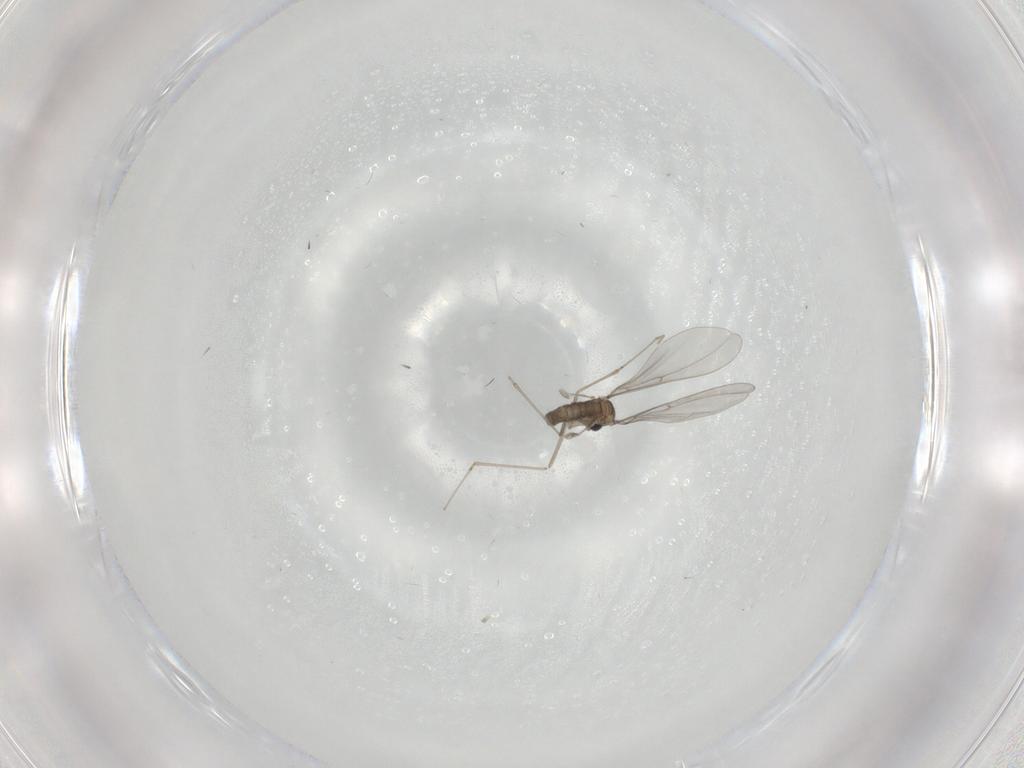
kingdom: Animalia
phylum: Arthropoda
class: Insecta
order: Diptera
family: Cecidomyiidae
